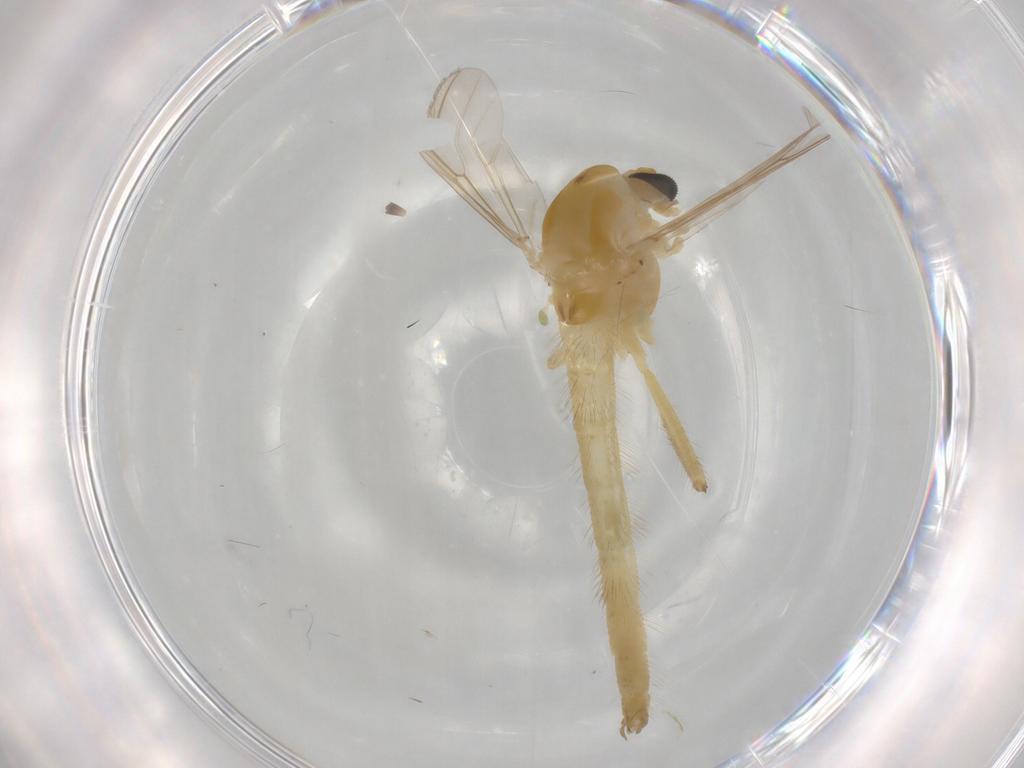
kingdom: Animalia
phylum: Arthropoda
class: Insecta
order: Diptera
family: Ceratopogonidae
